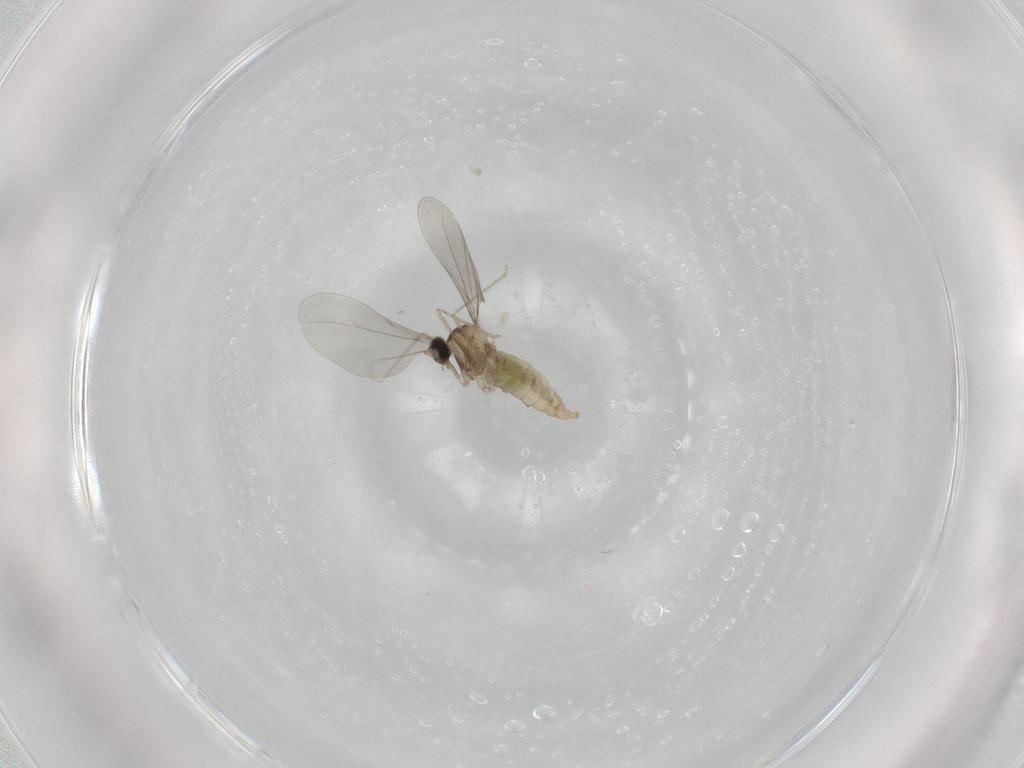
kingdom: Animalia
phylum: Arthropoda
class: Insecta
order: Diptera
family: Cecidomyiidae
